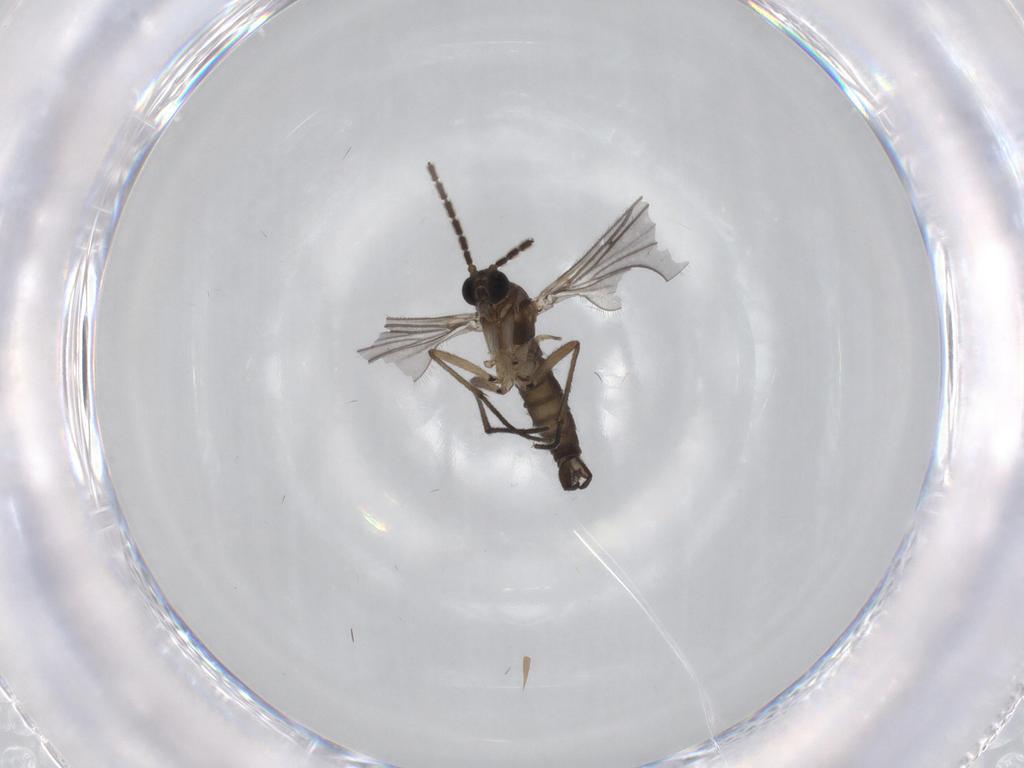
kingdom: Animalia
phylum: Arthropoda
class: Insecta
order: Diptera
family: Sciaridae
